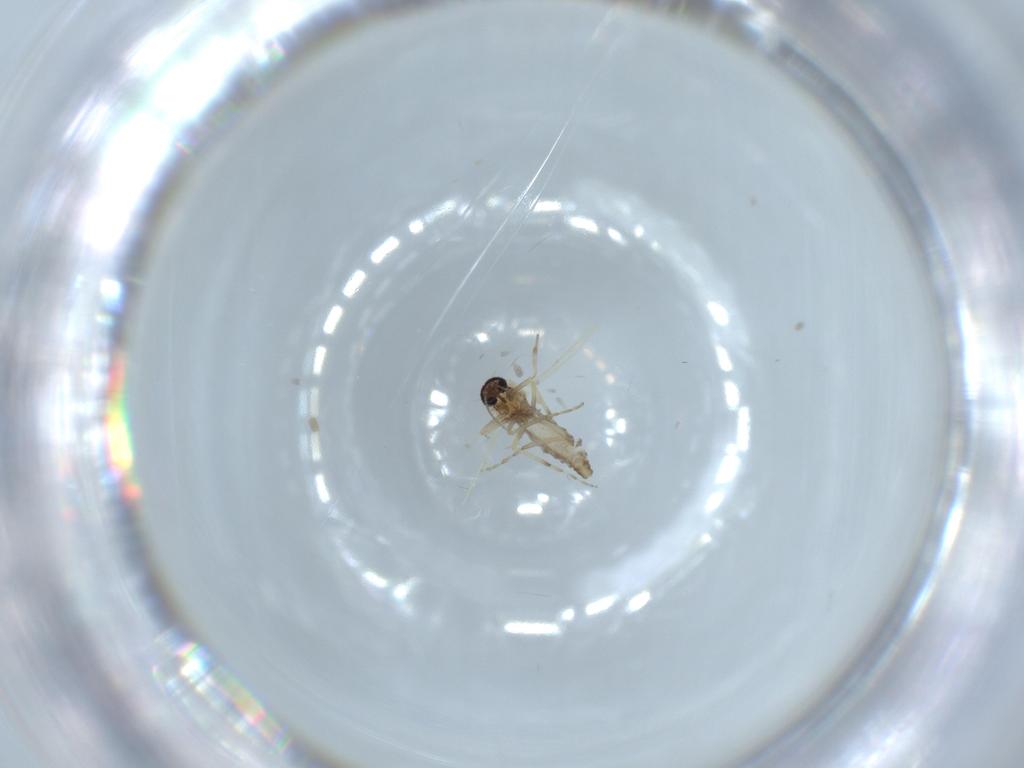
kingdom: Animalia
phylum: Arthropoda
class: Insecta
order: Diptera
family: Ceratopogonidae
